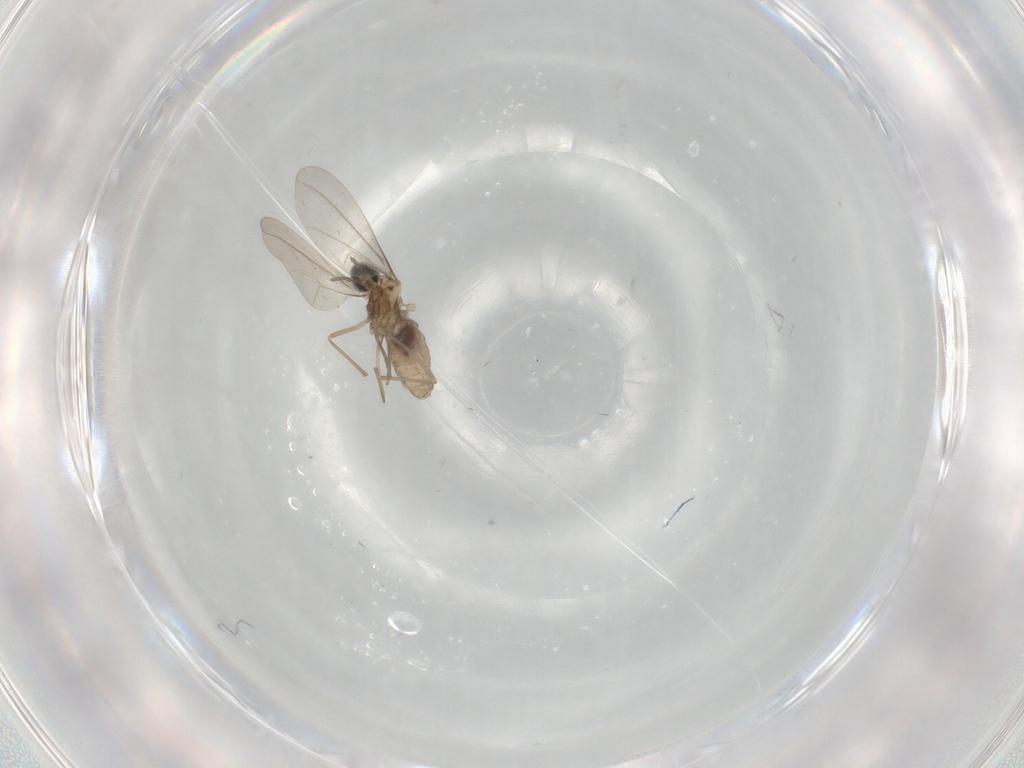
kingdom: Animalia
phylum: Arthropoda
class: Insecta
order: Diptera
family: Cecidomyiidae
